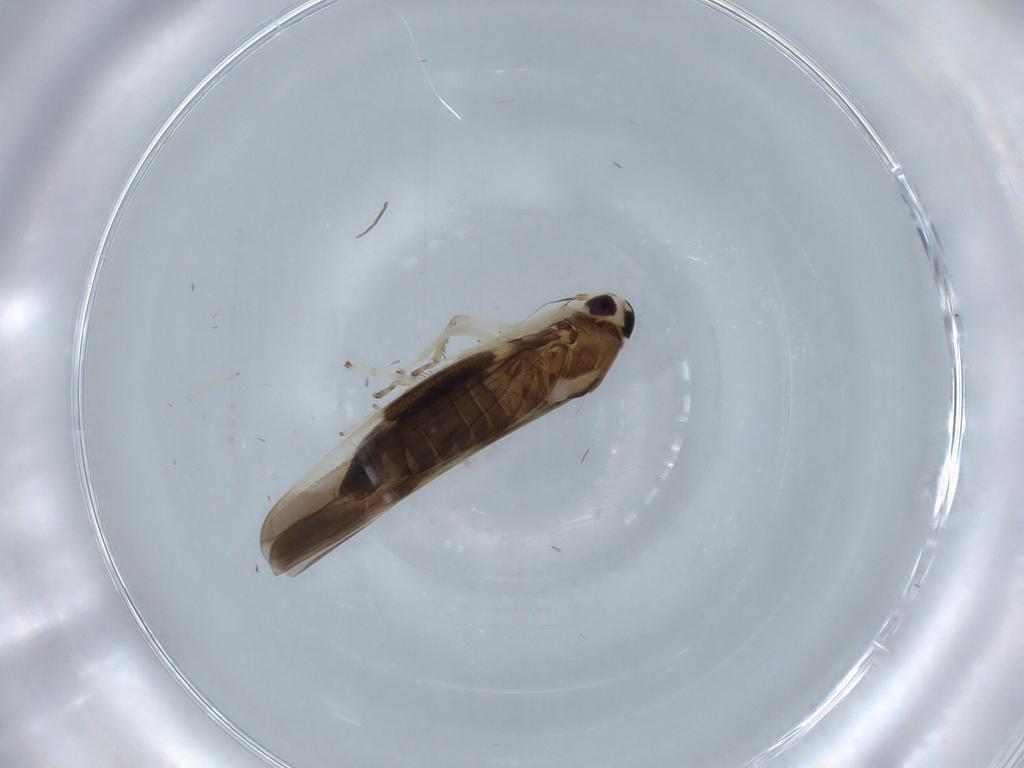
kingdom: Animalia
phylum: Arthropoda
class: Insecta
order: Hemiptera
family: Cicadellidae
